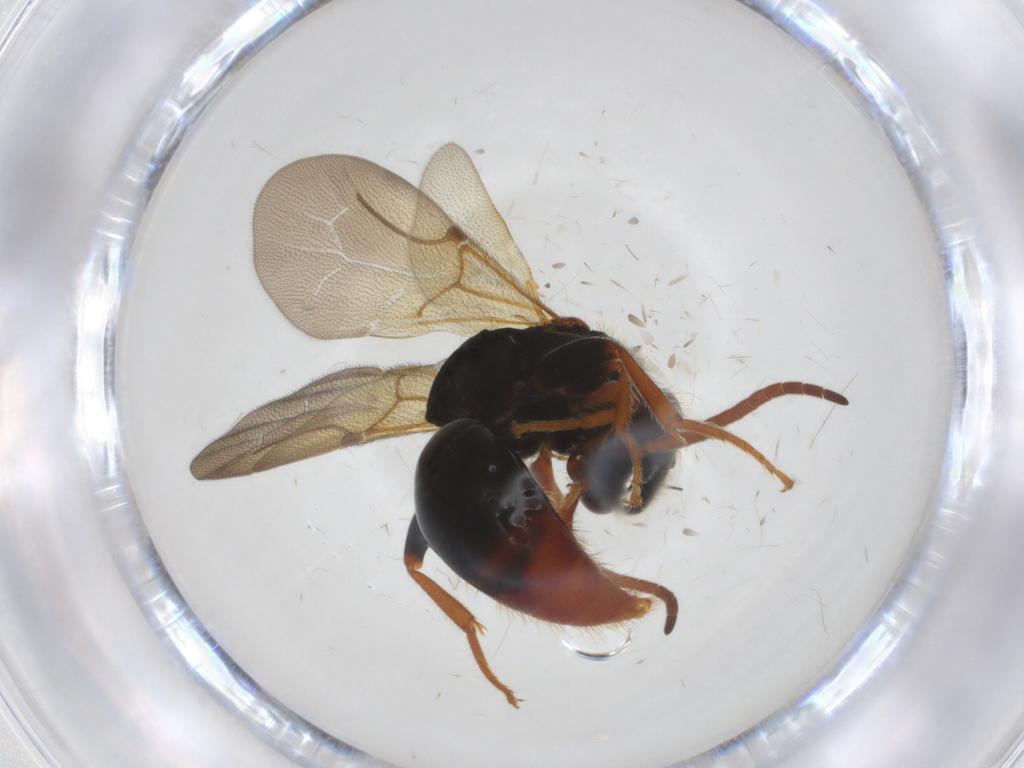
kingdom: Animalia
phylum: Arthropoda
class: Insecta
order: Hymenoptera
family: Bethylidae
